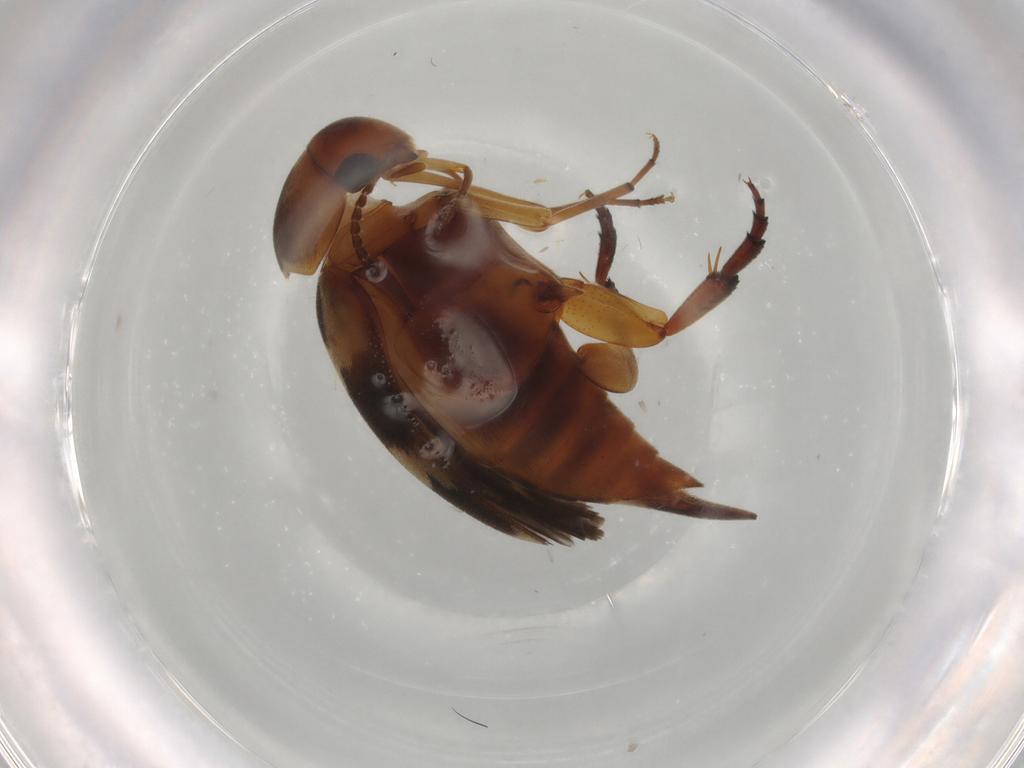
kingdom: Animalia
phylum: Arthropoda
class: Insecta
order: Coleoptera
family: Mordellidae
